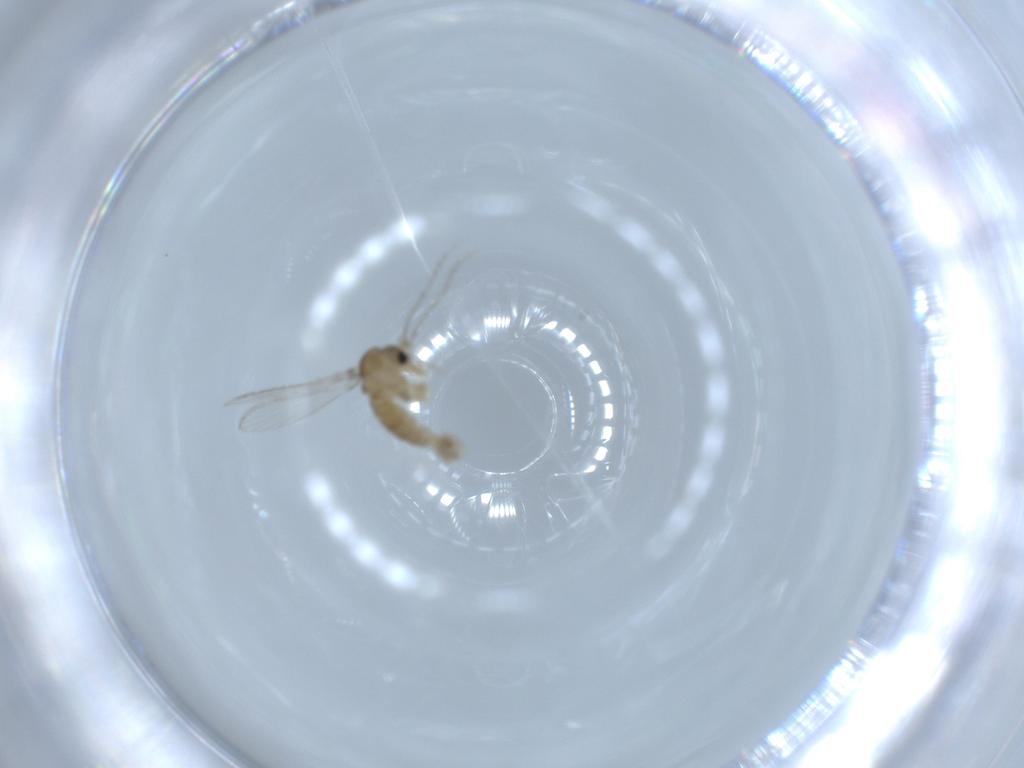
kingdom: Animalia
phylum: Arthropoda
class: Insecta
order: Diptera
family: Psychodidae
